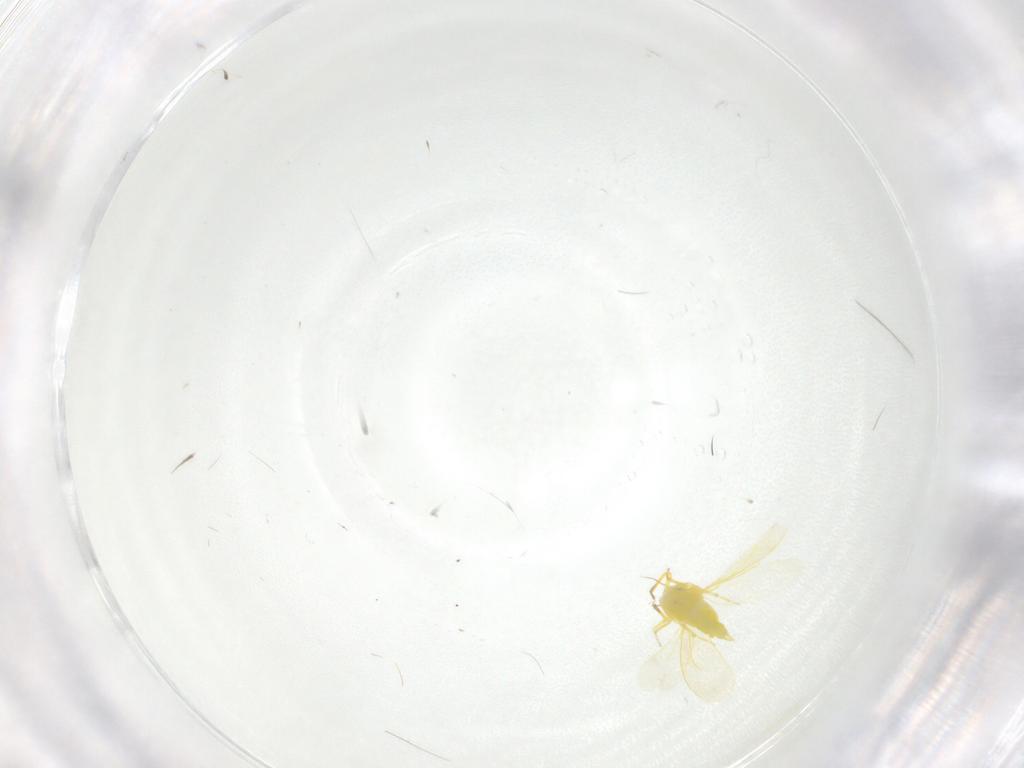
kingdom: Animalia
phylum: Arthropoda
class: Insecta
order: Hemiptera
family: Aleyrodidae
